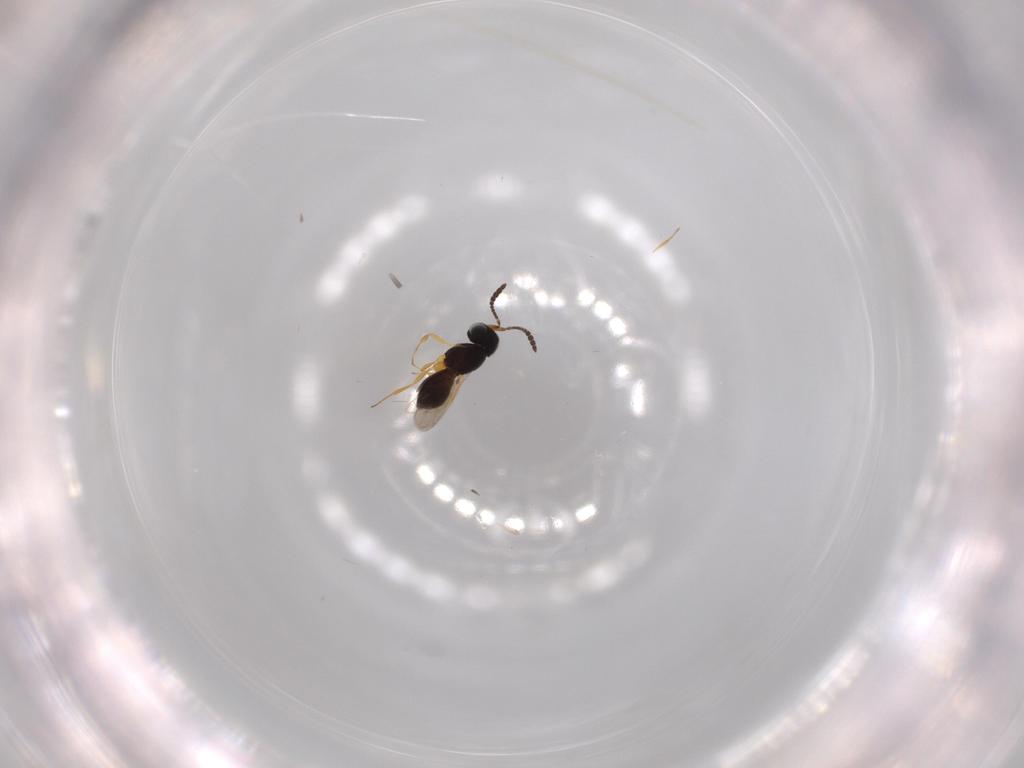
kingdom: Animalia
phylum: Arthropoda
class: Insecta
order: Hymenoptera
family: Scelionidae
